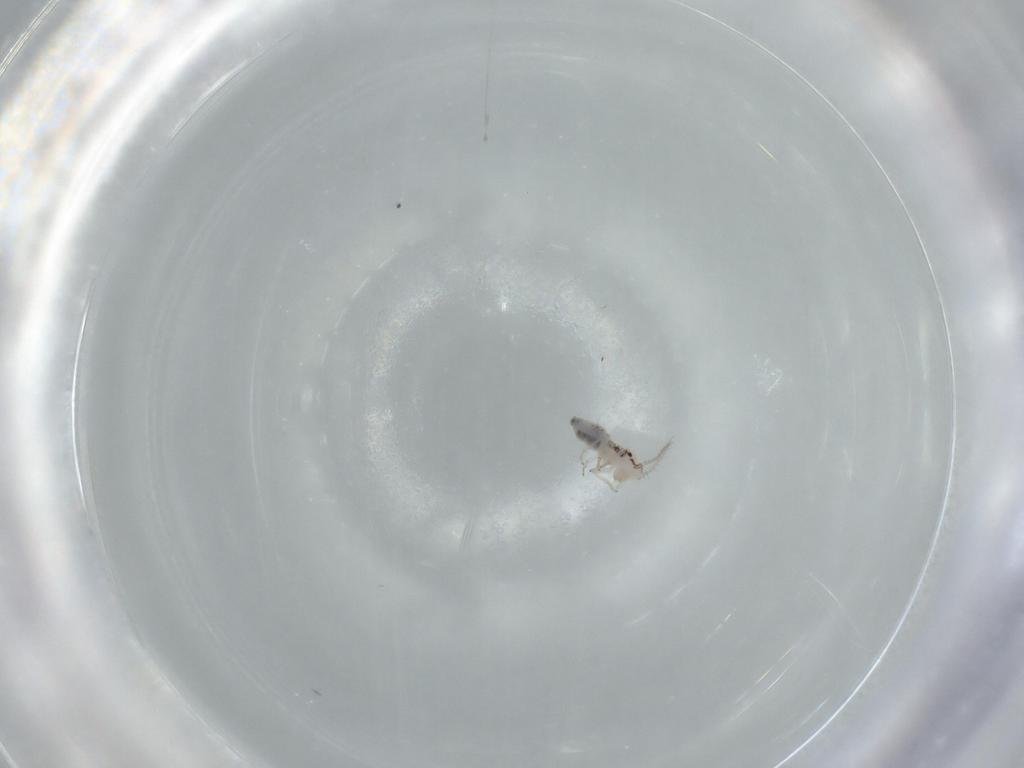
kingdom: Animalia
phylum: Arthropoda
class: Insecta
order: Psocodea
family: Pseudocaeciliidae
